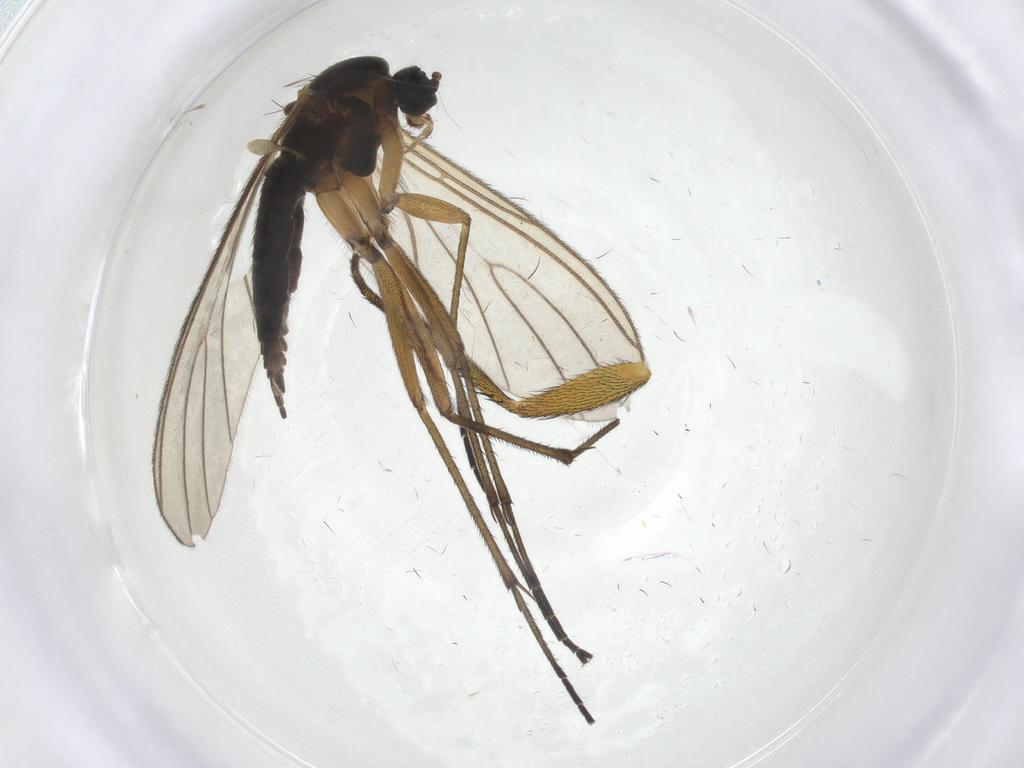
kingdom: Animalia
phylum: Arthropoda
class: Insecta
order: Diptera
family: Sciaridae
